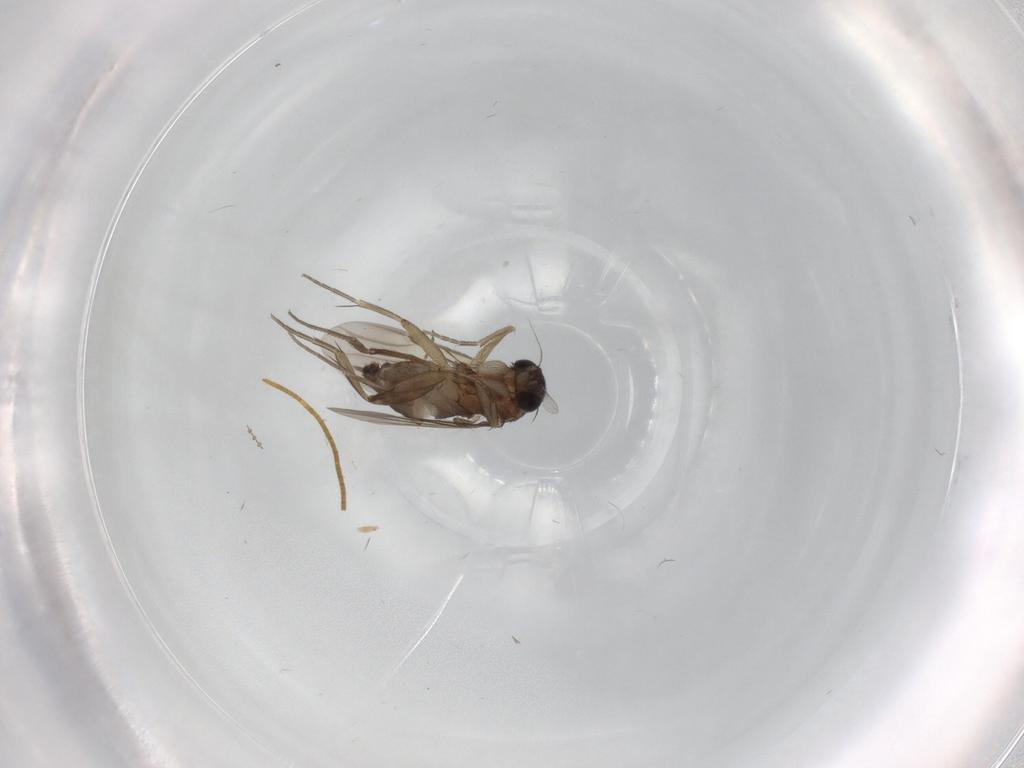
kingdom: Animalia
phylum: Arthropoda
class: Insecta
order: Diptera
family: Phoridae
